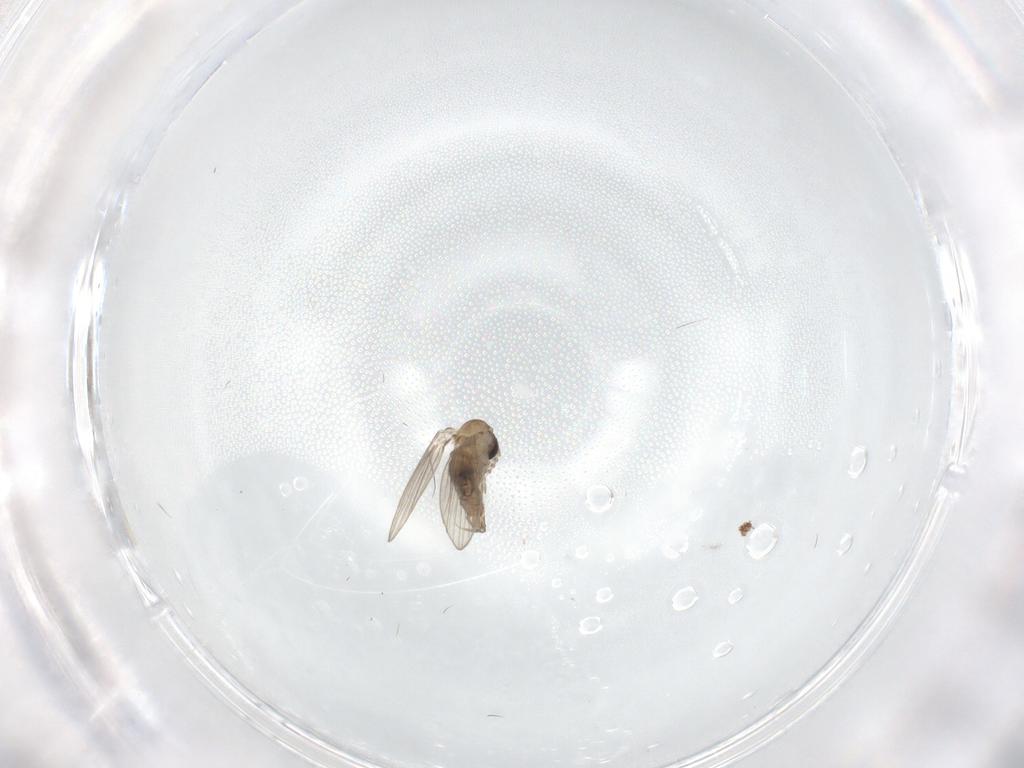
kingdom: Animalia
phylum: Arthropoda
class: Insecta
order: Diptera
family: Psychodidae
